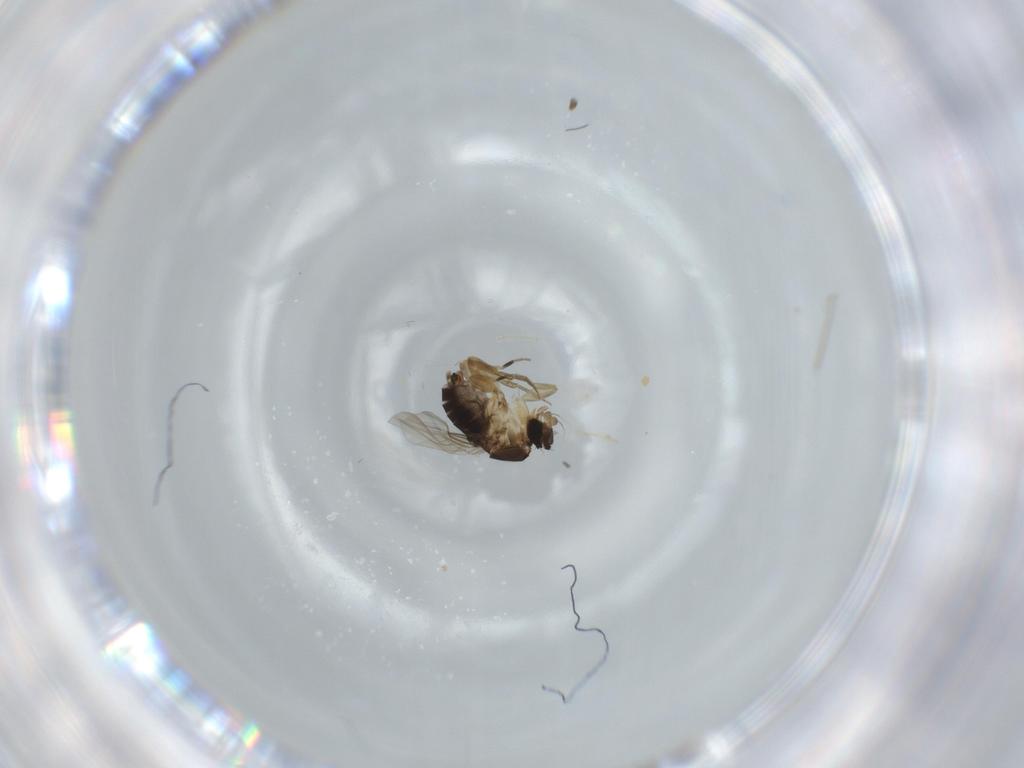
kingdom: Animalia
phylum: Arthropoda
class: Insecta
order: Diptera
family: Phoridae
